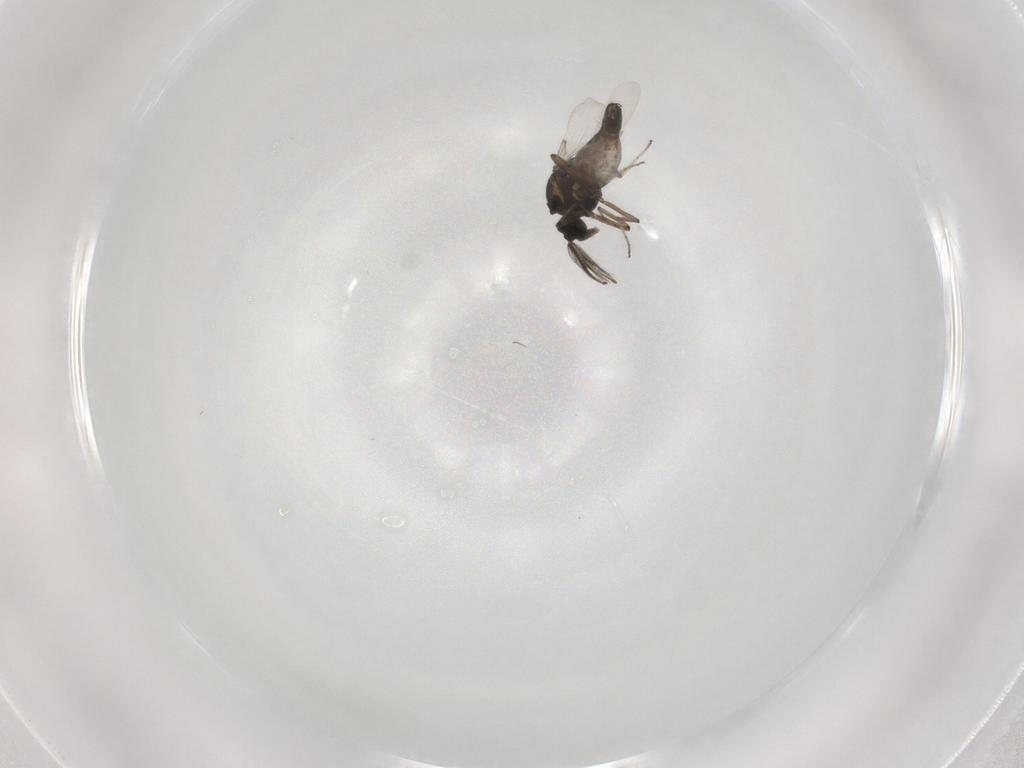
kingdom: Animalia
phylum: Arthropoda
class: Insecta
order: Diptera
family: Ceratopogonidae
